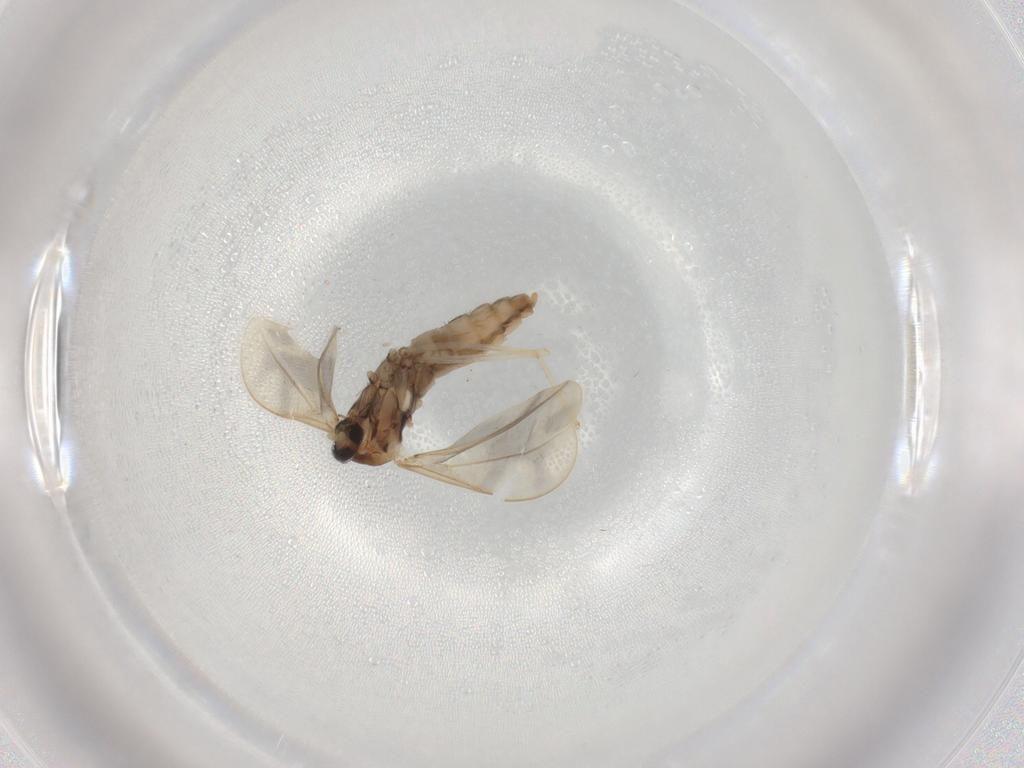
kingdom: Animalia
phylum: Arthropoda
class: Insecta
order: Diptera
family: Cecidomyiidae
